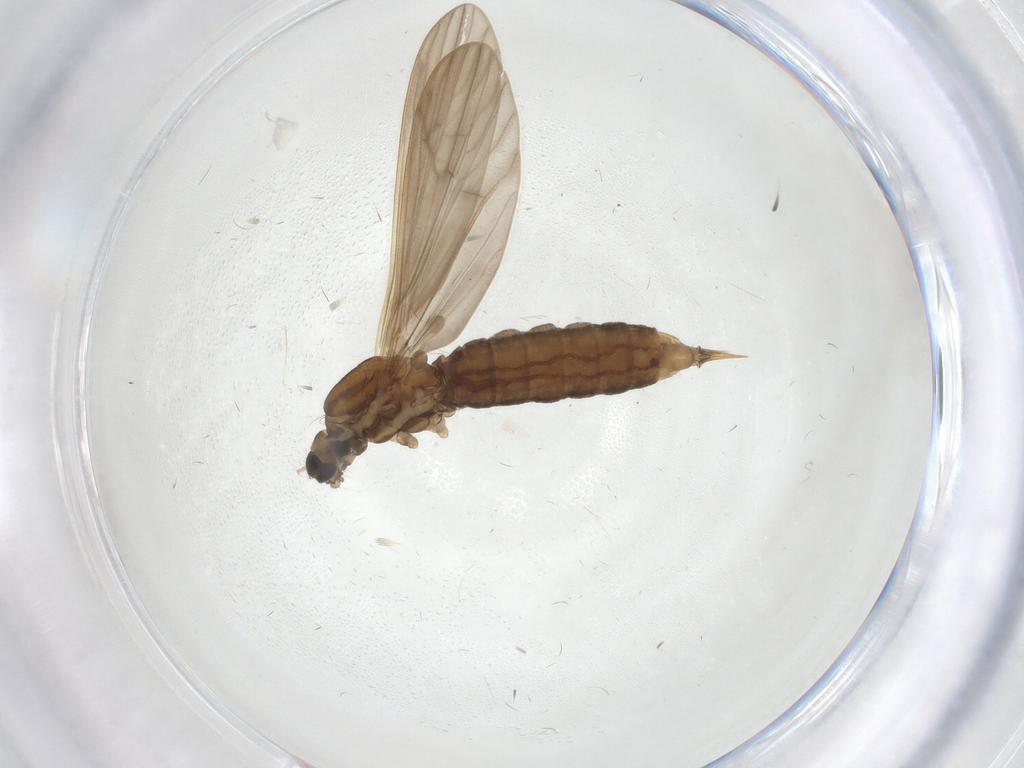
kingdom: Animalia
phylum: Arthropoda
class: Insecta
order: Diptera
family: Limoniidae
